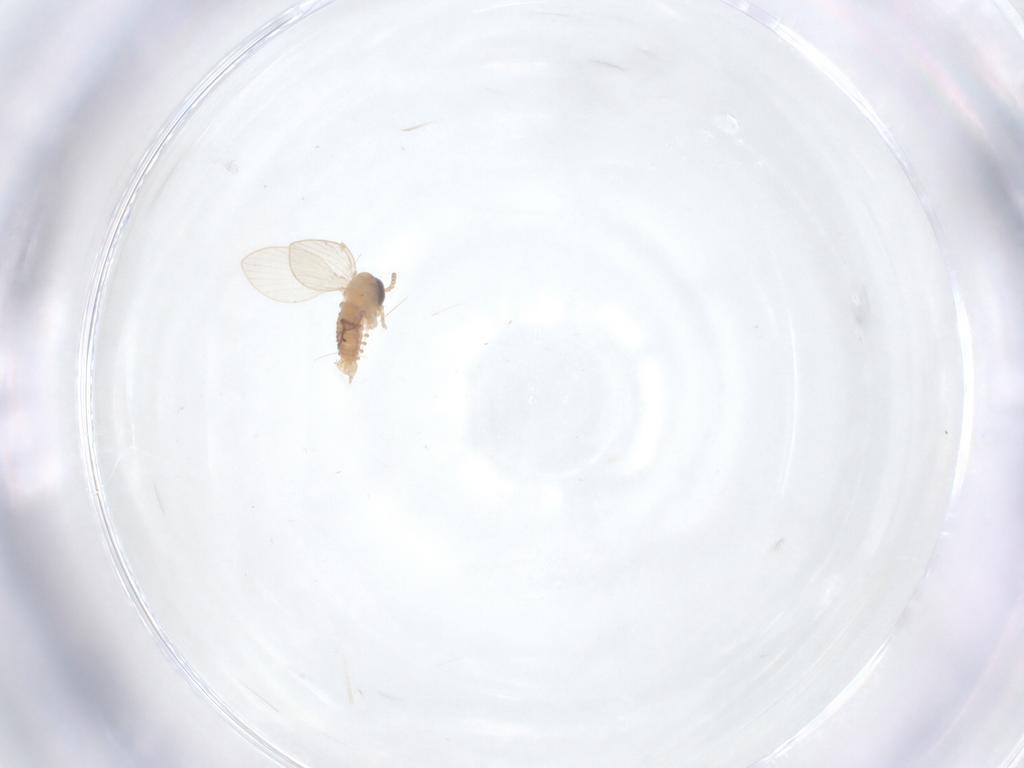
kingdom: Animalia
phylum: Arthropoda
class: Insecta
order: Diptera
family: Psychodidae
